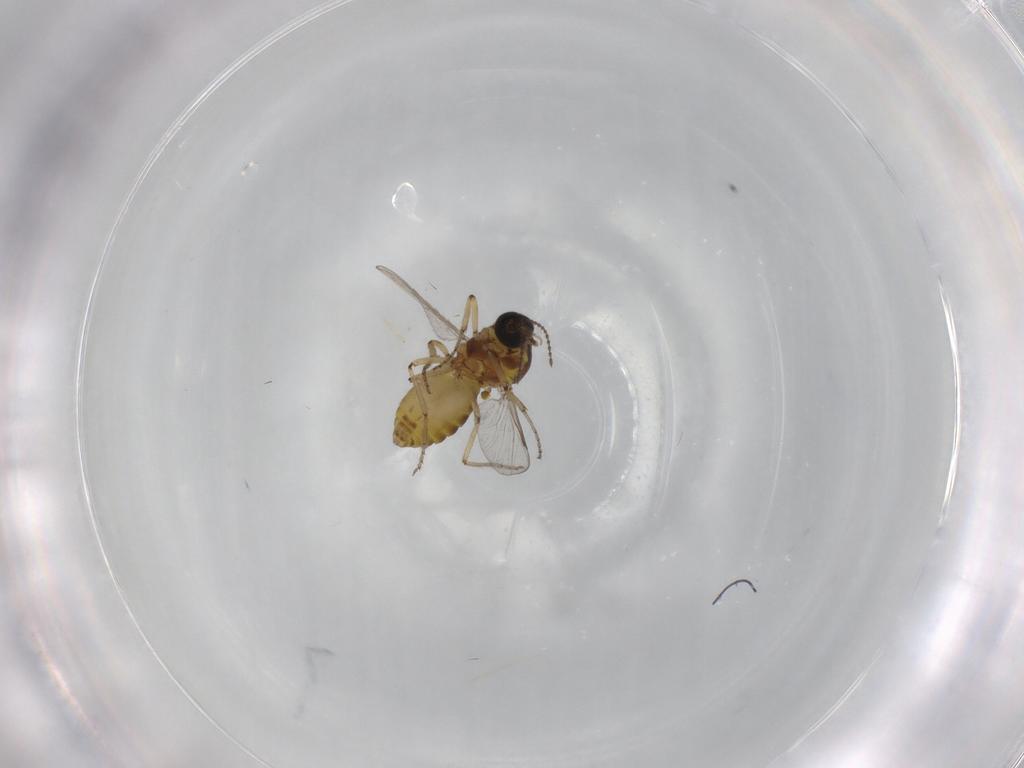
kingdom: Animalia
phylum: Arthropoda
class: Insecta
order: Diptera
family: Ceratopogonidae
